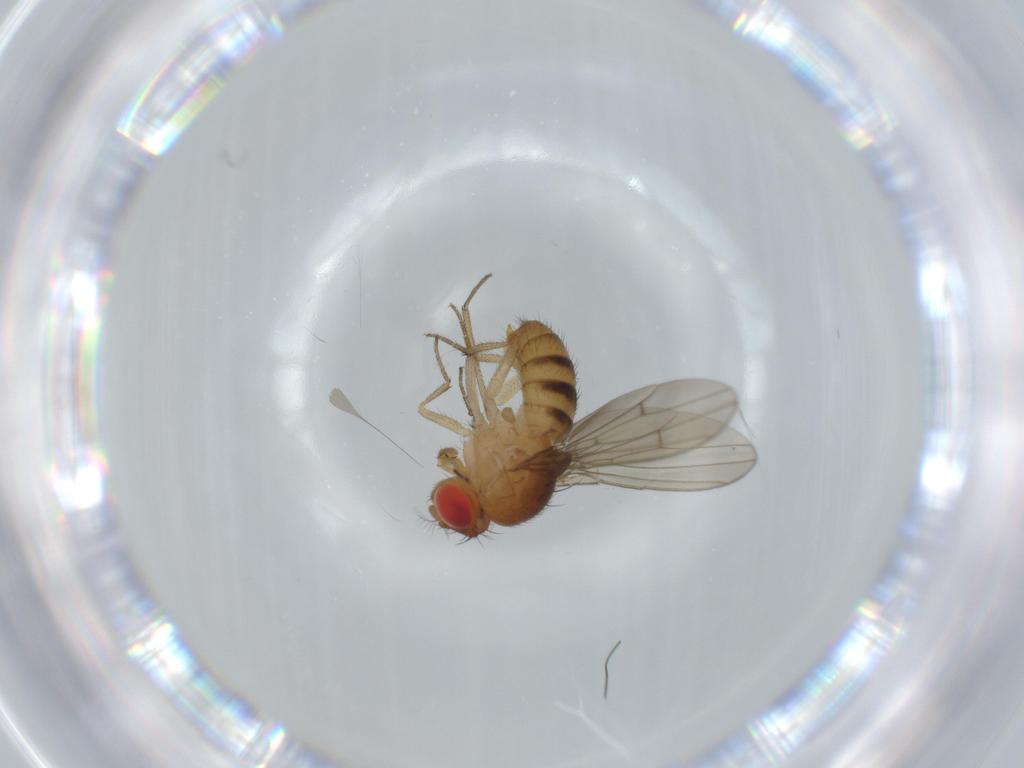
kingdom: Animalia
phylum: Arthropoda
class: Insecta
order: Diptera
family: Drosophilidae
